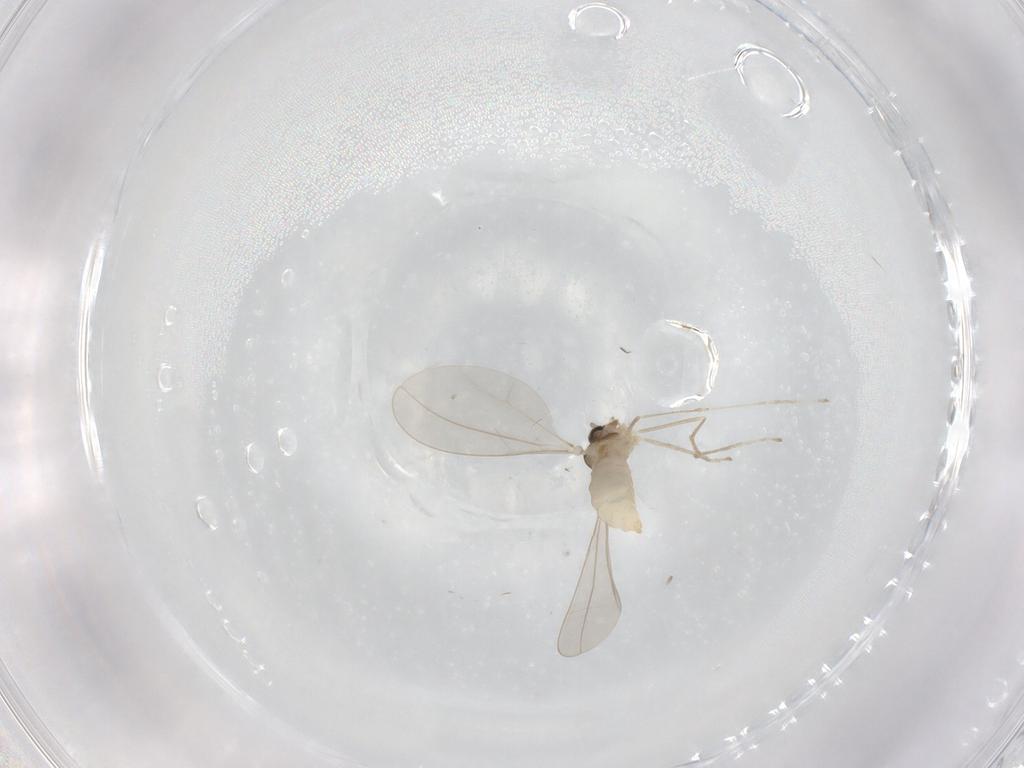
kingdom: Animalia
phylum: Arthropoda
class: Insecta
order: Diptera
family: Cecidomyiidae
